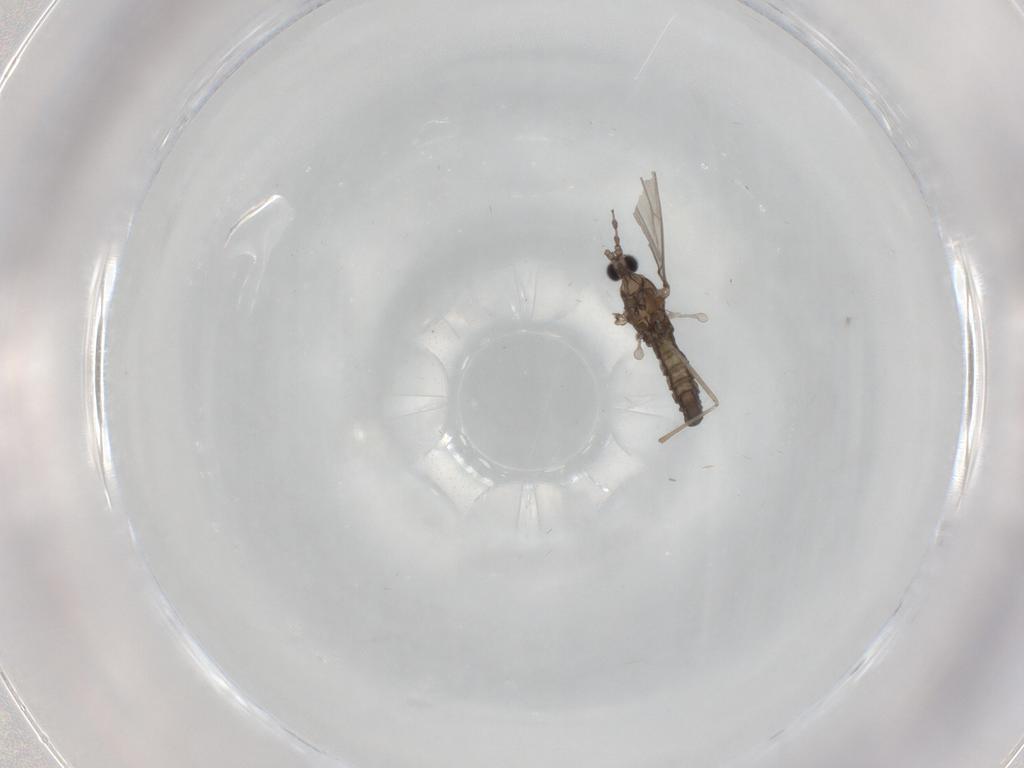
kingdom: Animalia
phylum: Arthropoda
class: Insecta
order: Diptera
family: Cecidomyiidae
